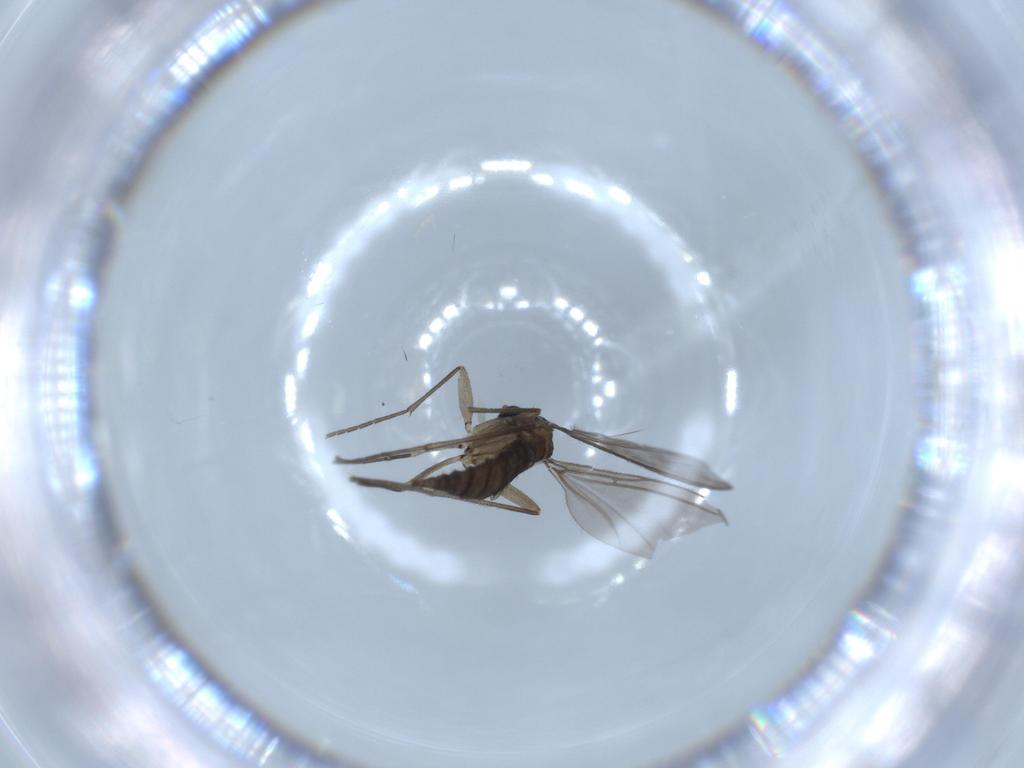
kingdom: Animalia
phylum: Arthropoda
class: Insecta
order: Diptera
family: Sciaridae
